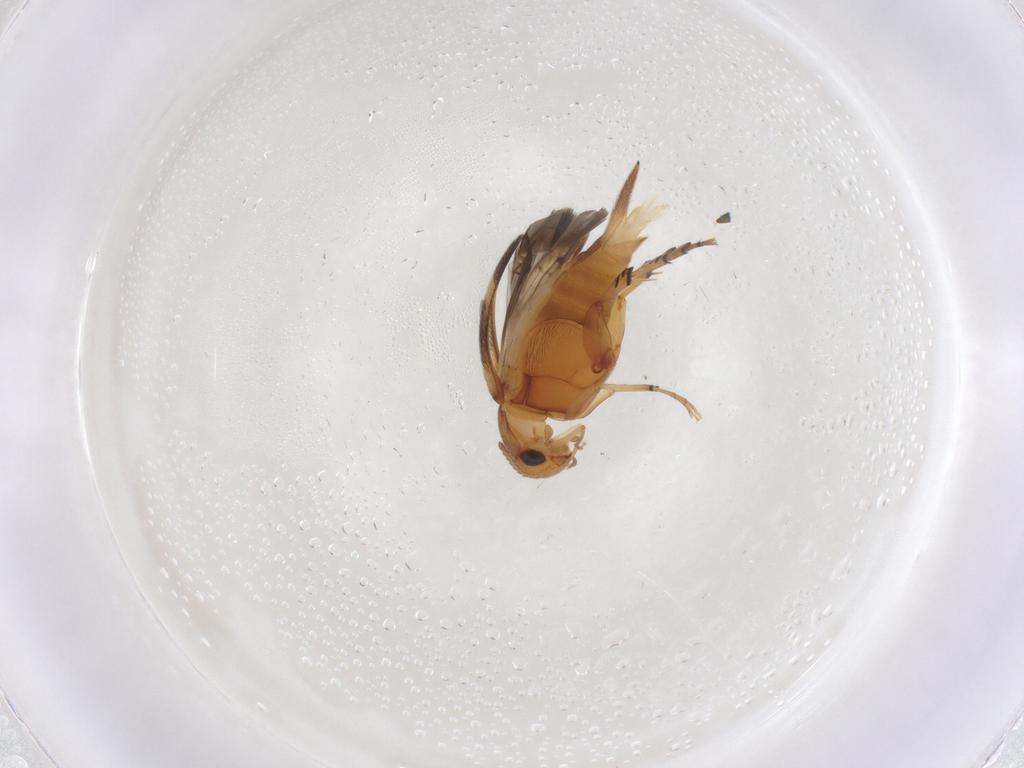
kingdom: Animalia
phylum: Arthropoda
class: Insecta
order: Coleoptera
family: Mordellidae
